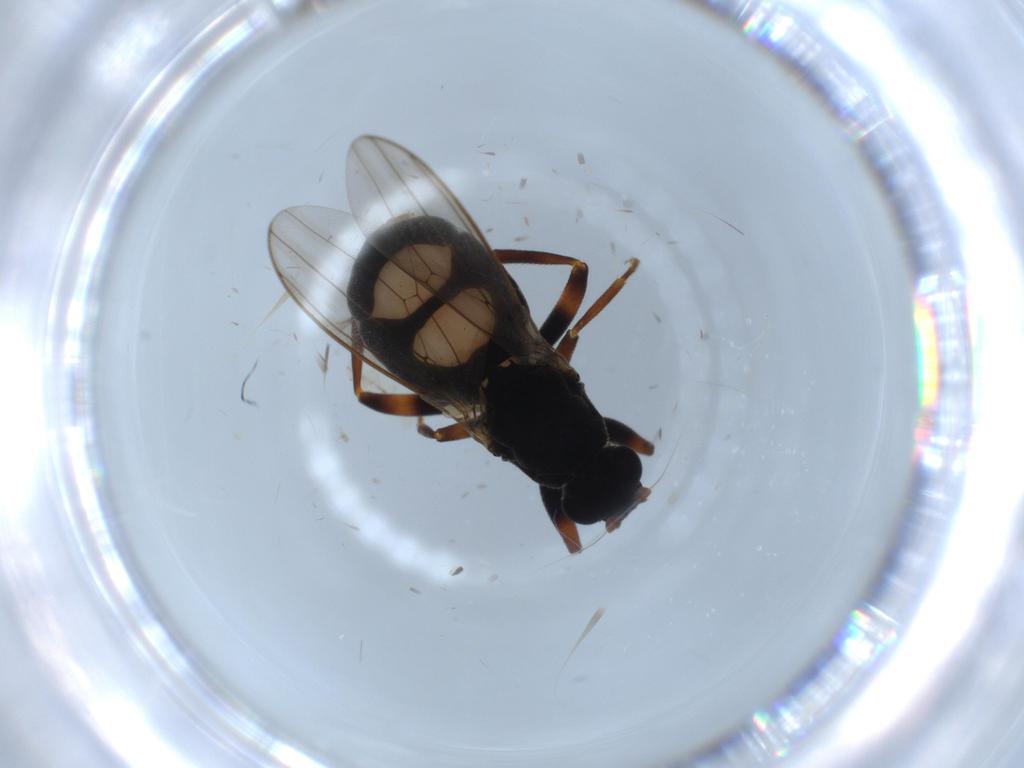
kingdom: Animalia
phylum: Arthropoda
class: Insecta
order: Diptera
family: Sphaeroceridae
